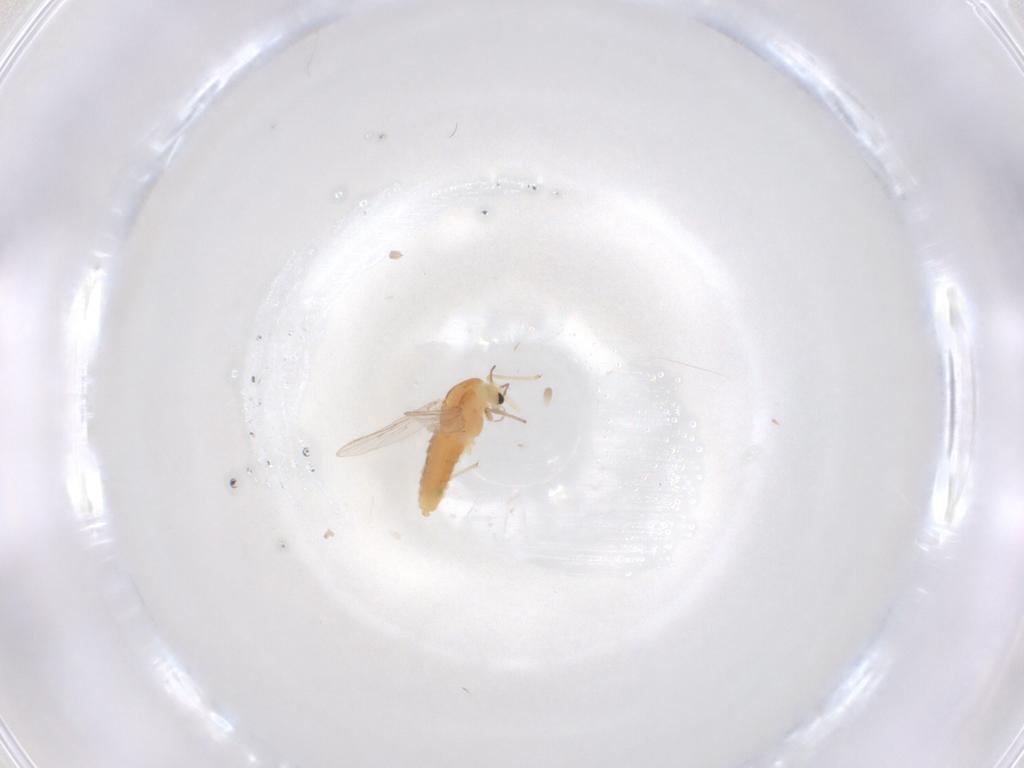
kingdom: Animalia
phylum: Arthropoda
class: Insecta
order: Diptera
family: Chironomidae
